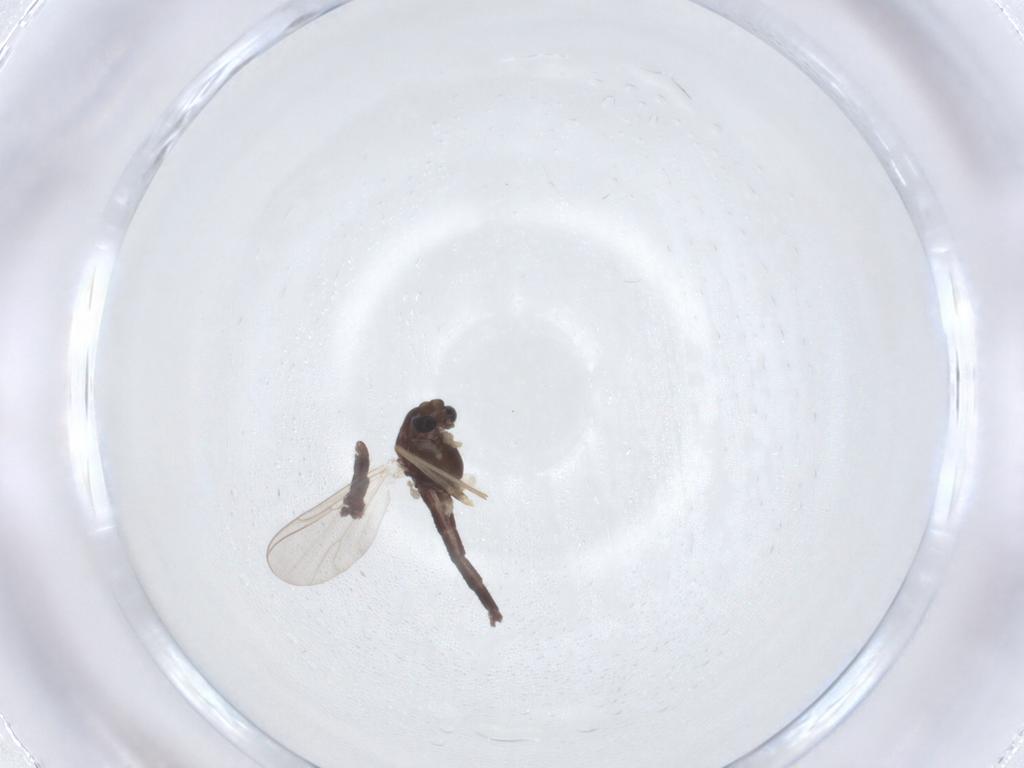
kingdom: Animalia
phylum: Arthropoda
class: Insecta
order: Diptera
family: Chironomidae
